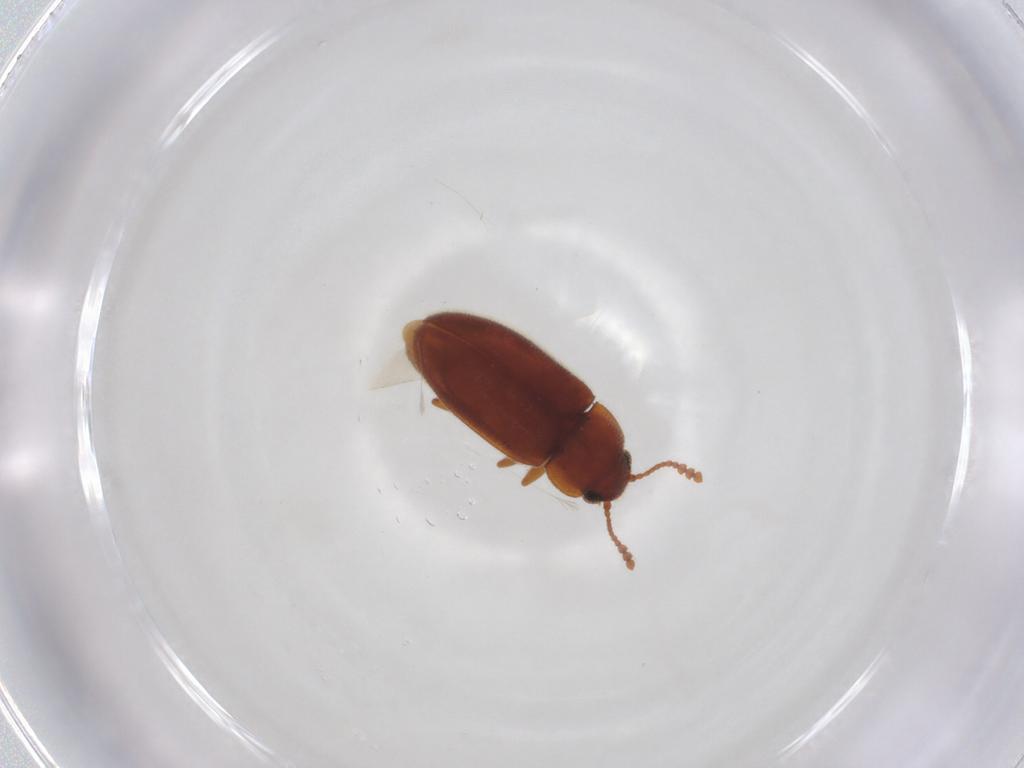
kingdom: Animalia
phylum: Arthropoda
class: Insecta
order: Coleoptera
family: Erotylidae
